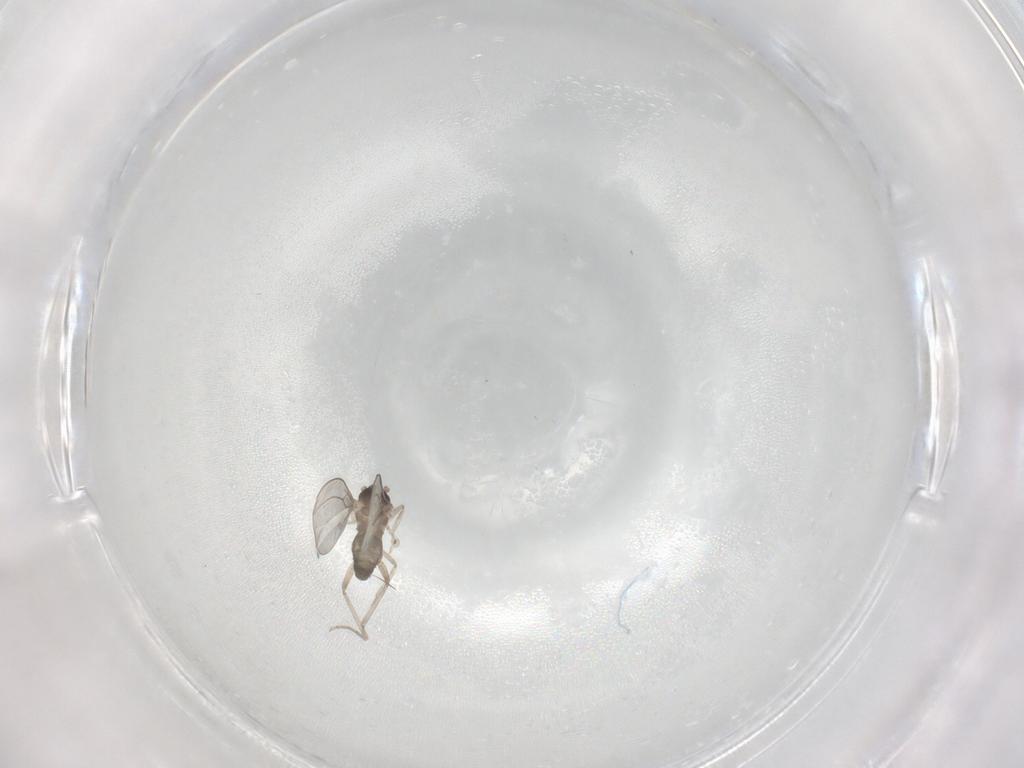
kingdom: Animalia
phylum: Arthropoda
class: Insecta
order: Diptera
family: Cecidomyiidae
